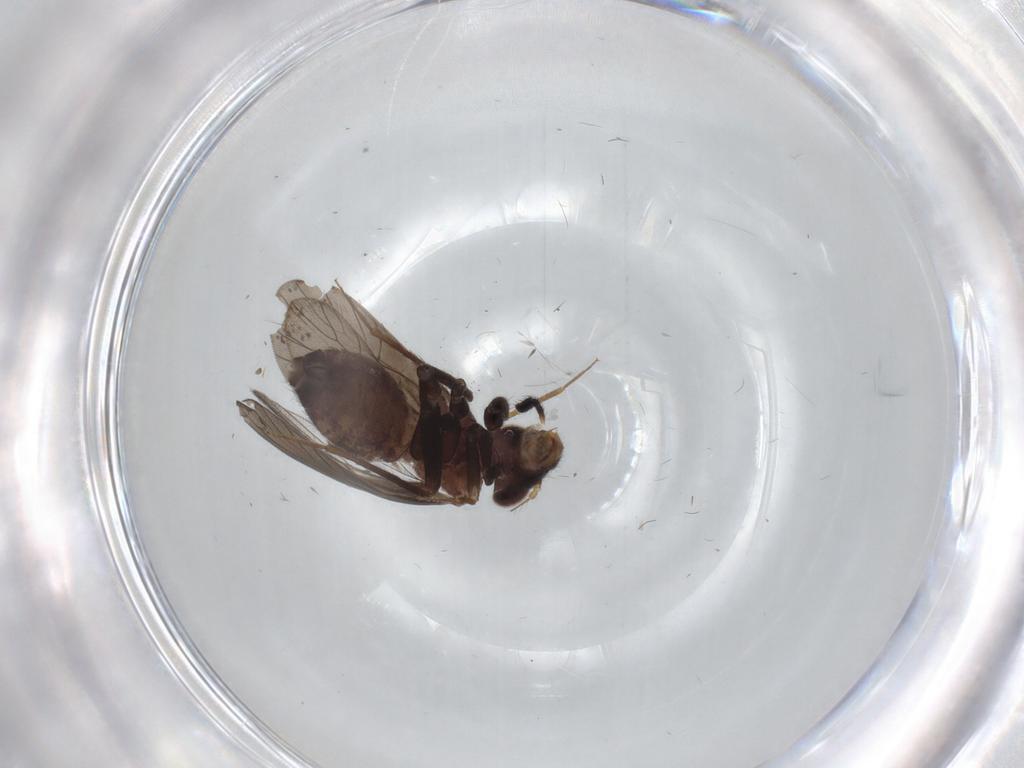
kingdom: Animalia
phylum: Arthropoda
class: Insecta
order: Psocodea
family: Lepidopsocidae
